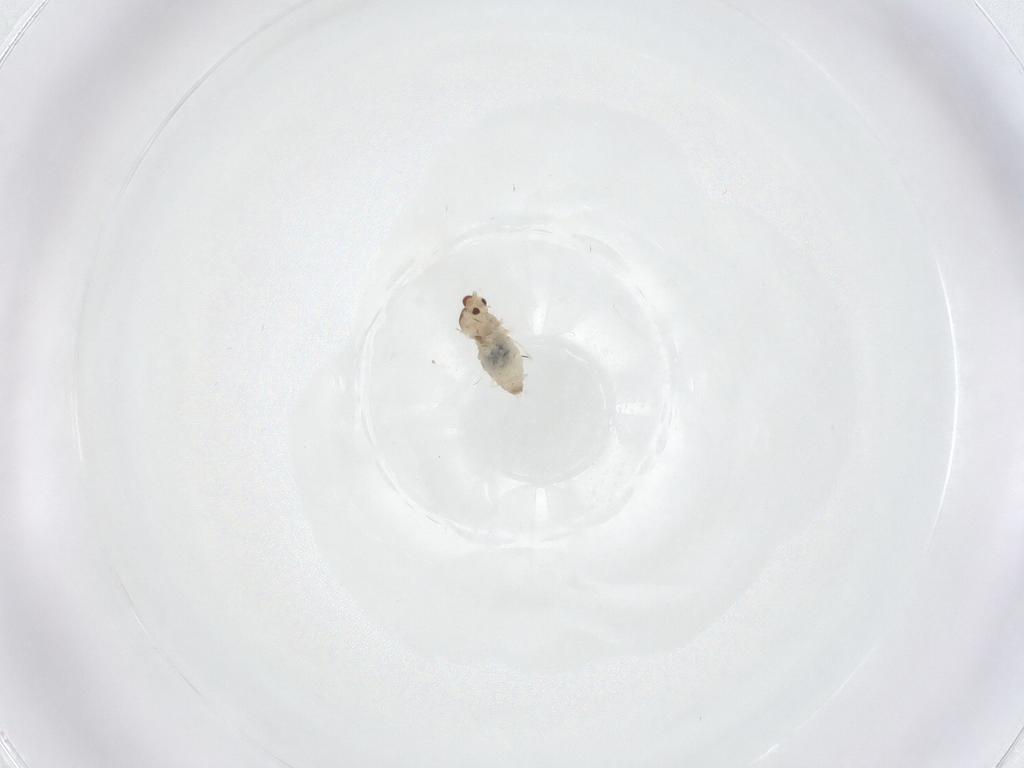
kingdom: Animalia
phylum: Arthropoda
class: Insecta
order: Diptera
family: Cecidomyiidae
